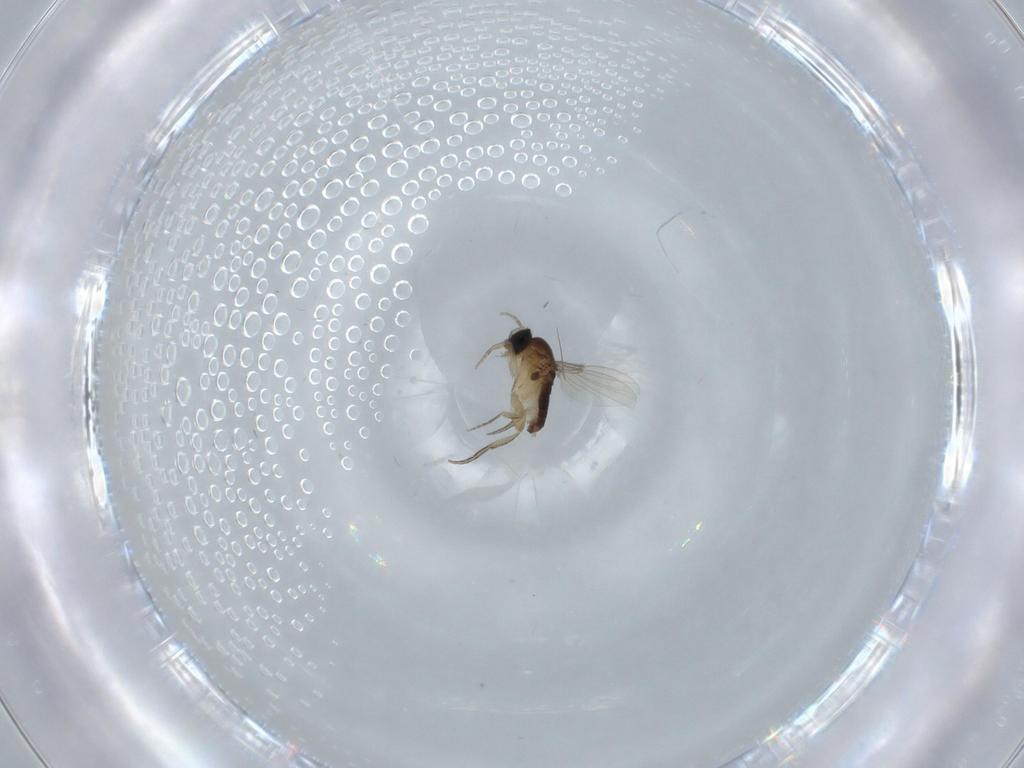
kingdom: Animalia
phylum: Arthropoda
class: Insecta
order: Diptera
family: Phoridae
